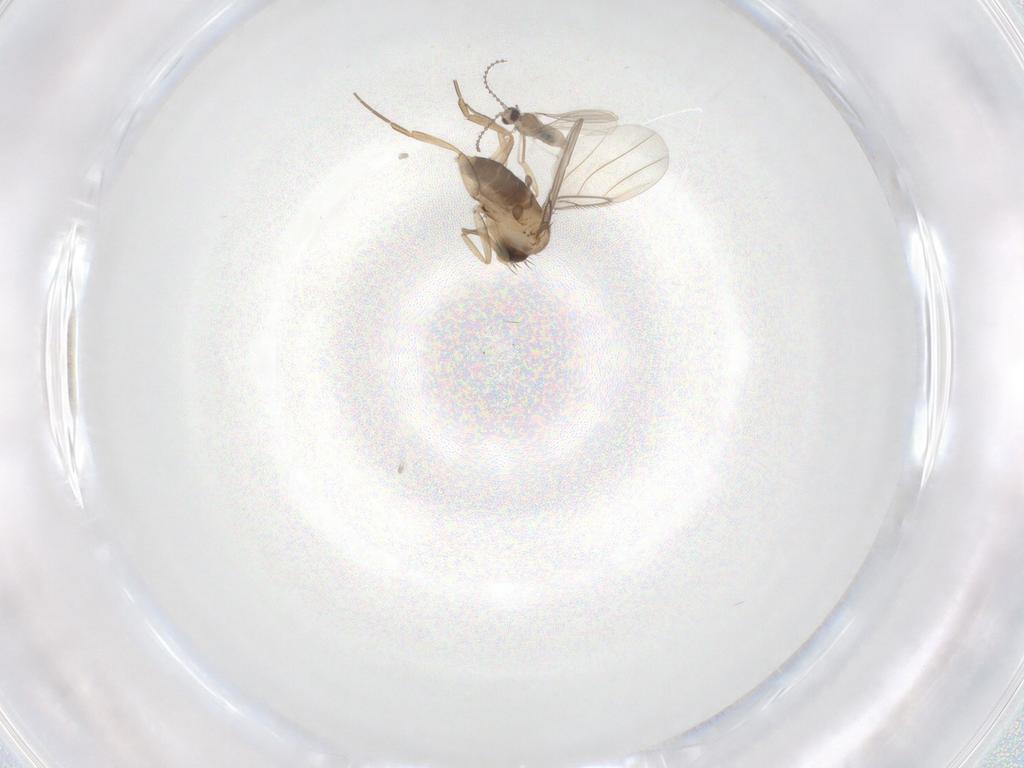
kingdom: Animalia
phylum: Arthropoda
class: Insecta
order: Diptera
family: Cecidomyiidae
